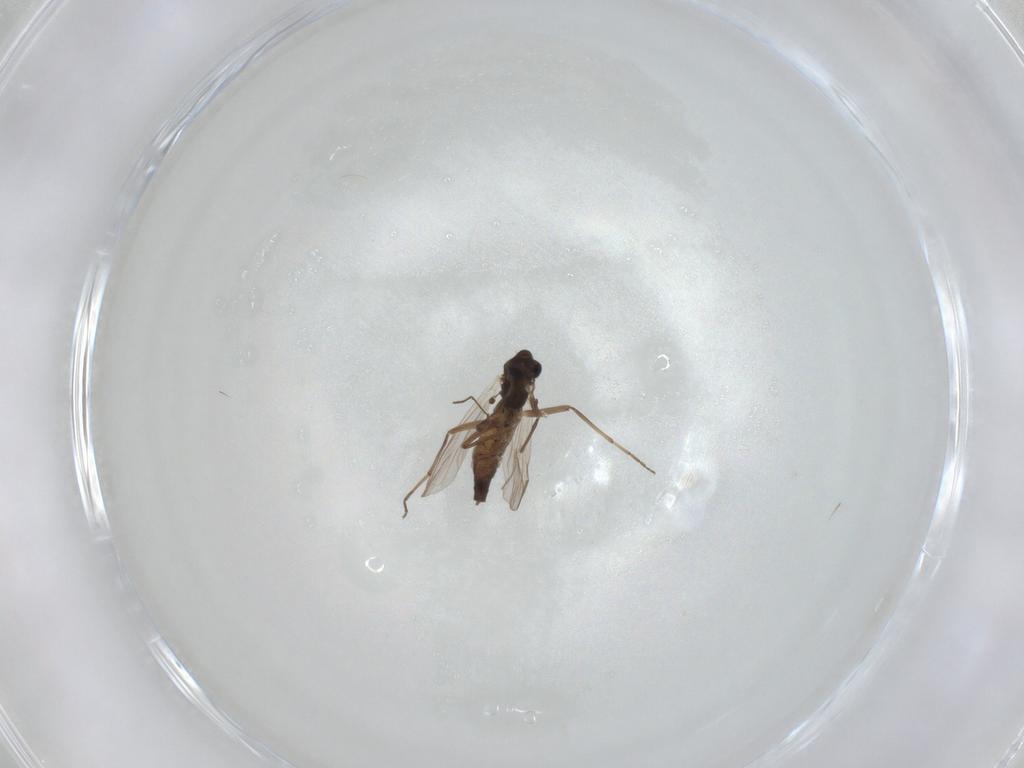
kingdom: Animalia
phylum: Arthropoda
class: Insecta
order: Diptera
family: Chironomidae
